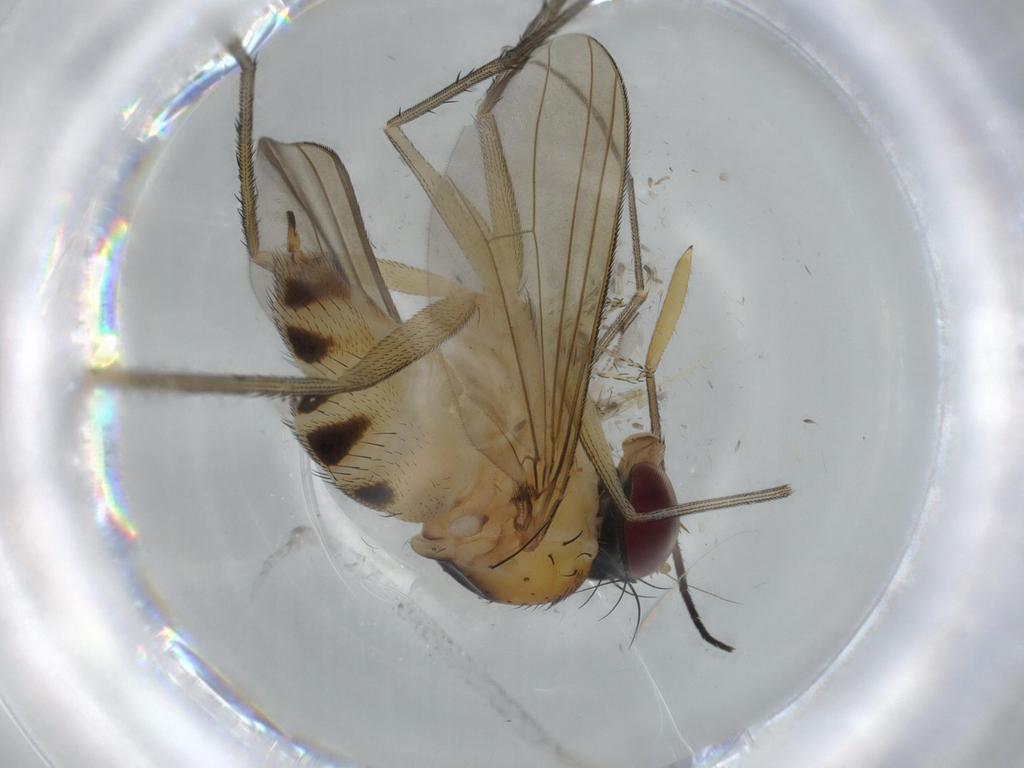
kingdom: Animalia
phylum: Arthropoda
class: Insecta
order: Diptera
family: Dolichopodidae
